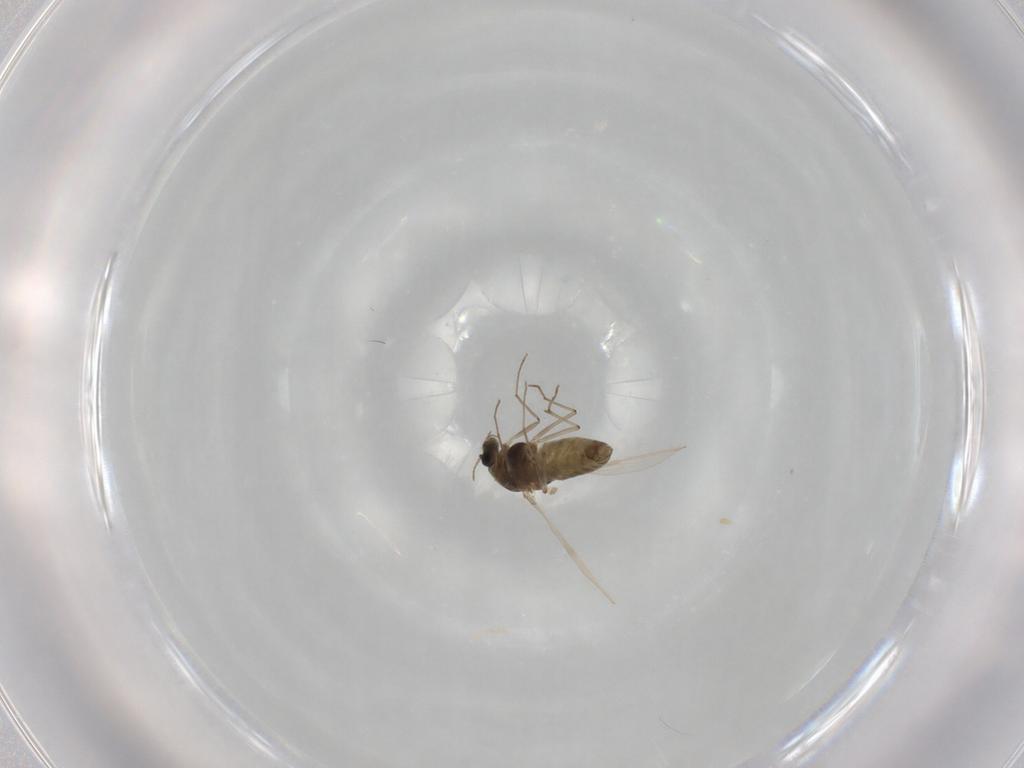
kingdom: Animalia
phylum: Arthropoda
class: Insecta
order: Diptera
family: Chironomidae
